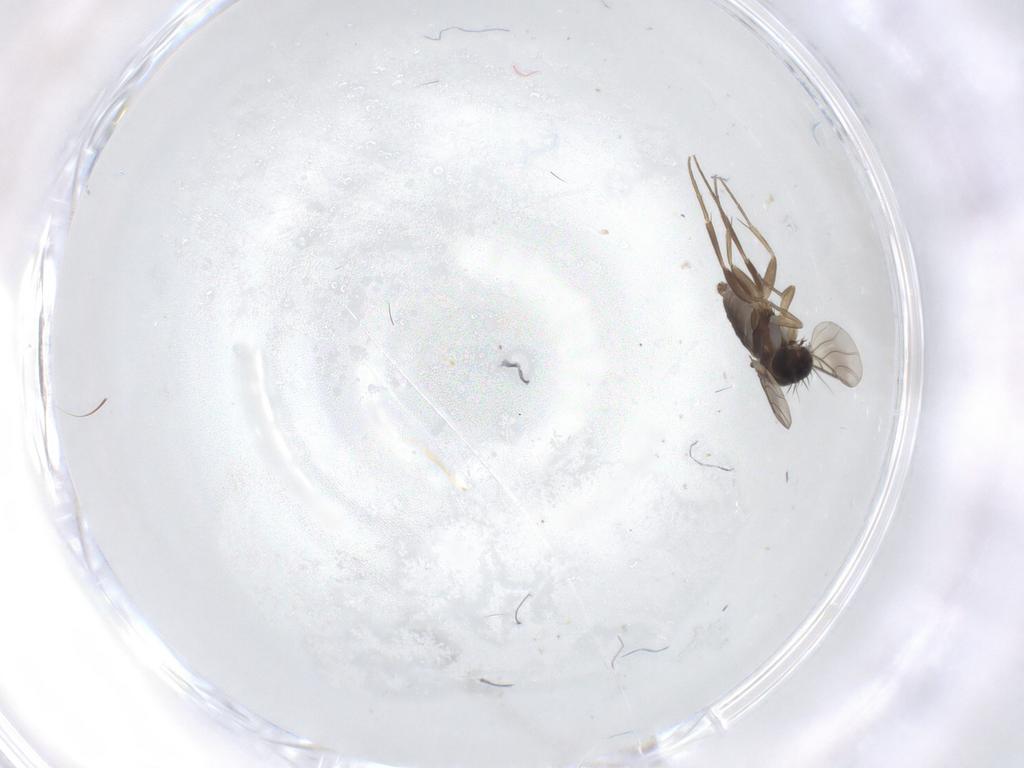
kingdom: Animalia
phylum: Arthropoda
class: Insecta
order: Diptera
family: Phoridae
